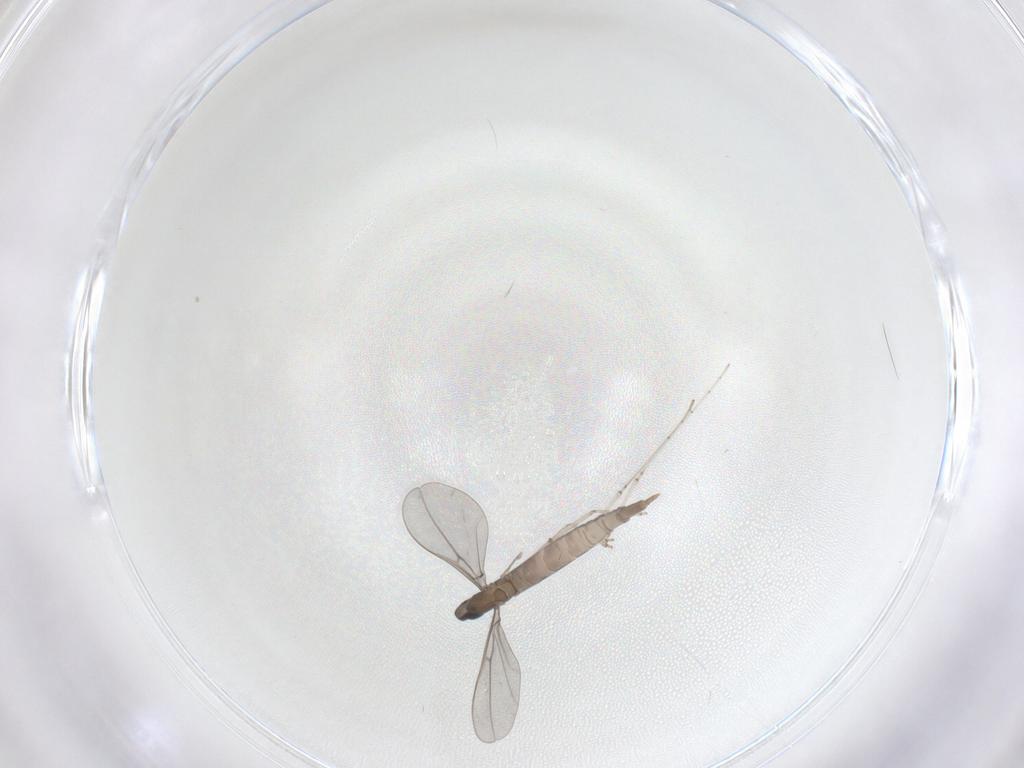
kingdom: Animalia
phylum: Arthropoda
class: Insecta
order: Diptera
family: Cecidomyiidae
